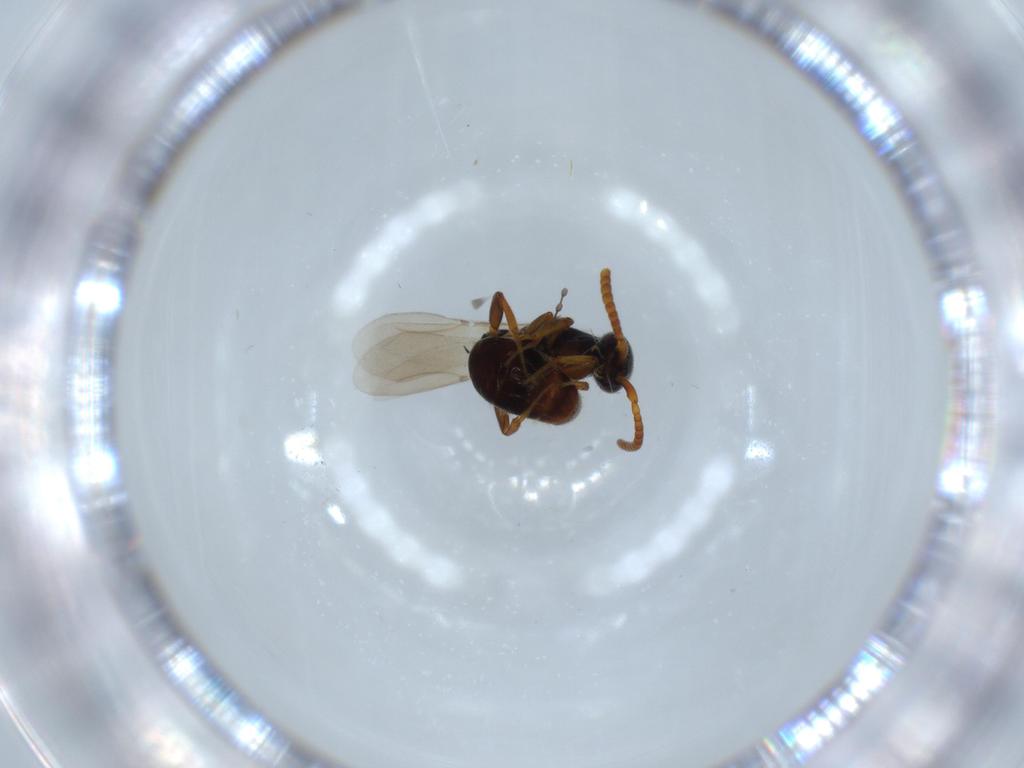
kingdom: Animalia
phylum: Arthropoda
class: Insecta
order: Hymenoptera
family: Bethylidae
